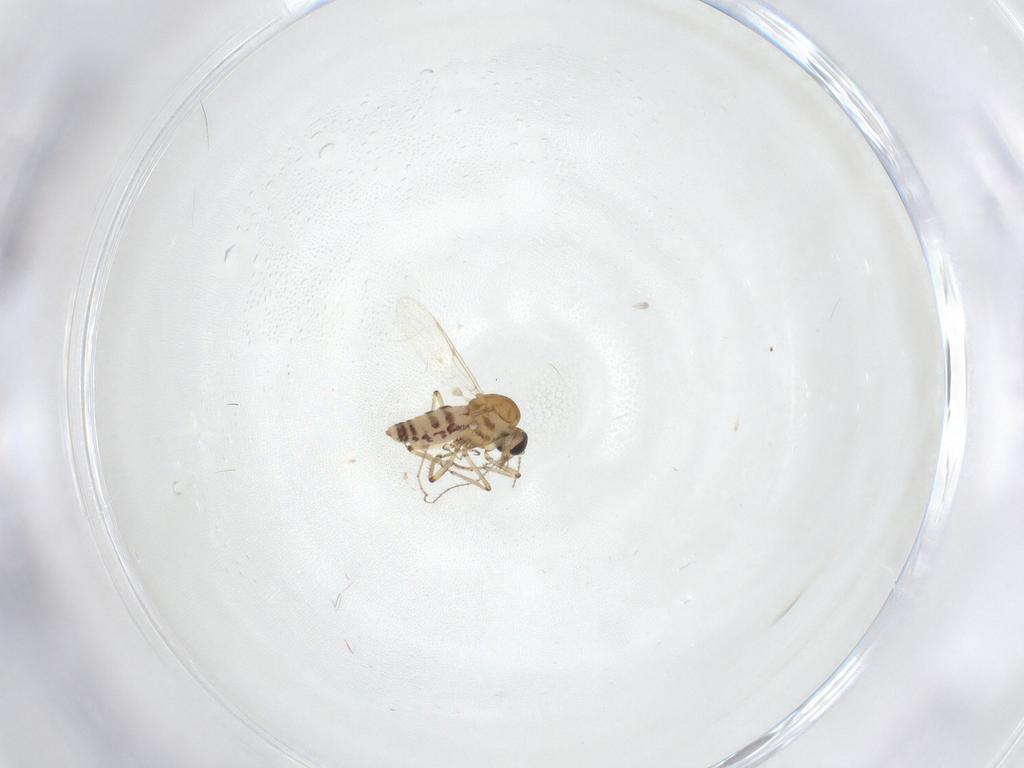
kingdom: Animalia
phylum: Arthropoda
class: Insecta
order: Diptera
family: Ceratopogonidae
